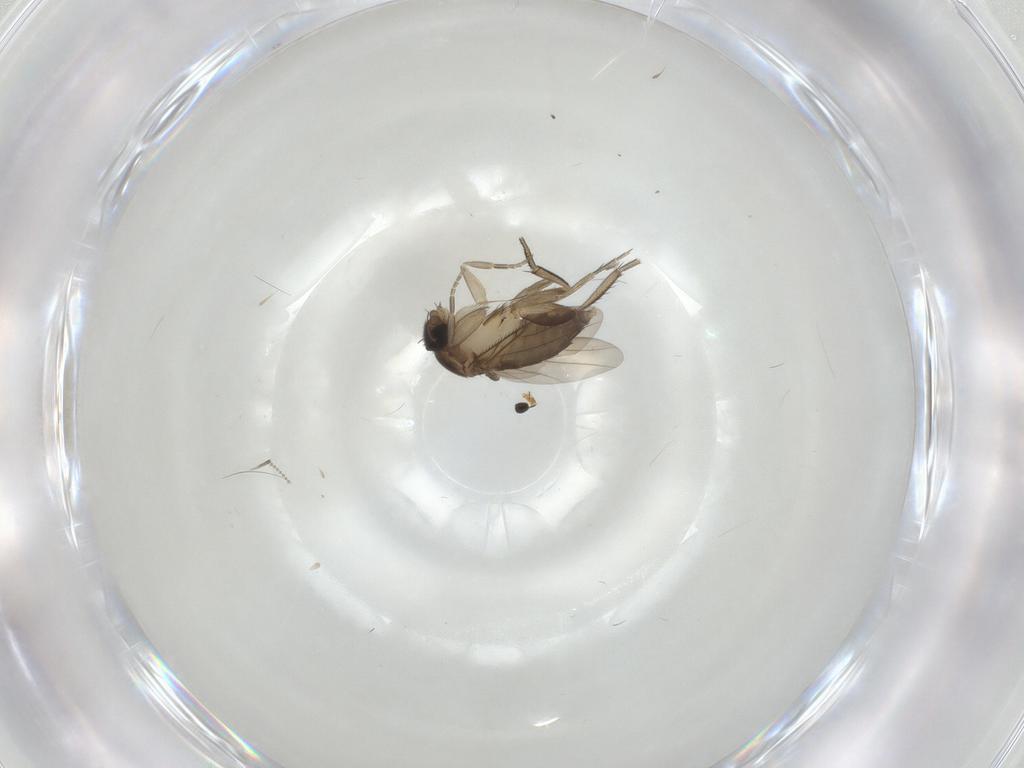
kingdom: Animalia
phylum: Arthropoda
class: Insecta
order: Diptera
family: Phoridae
